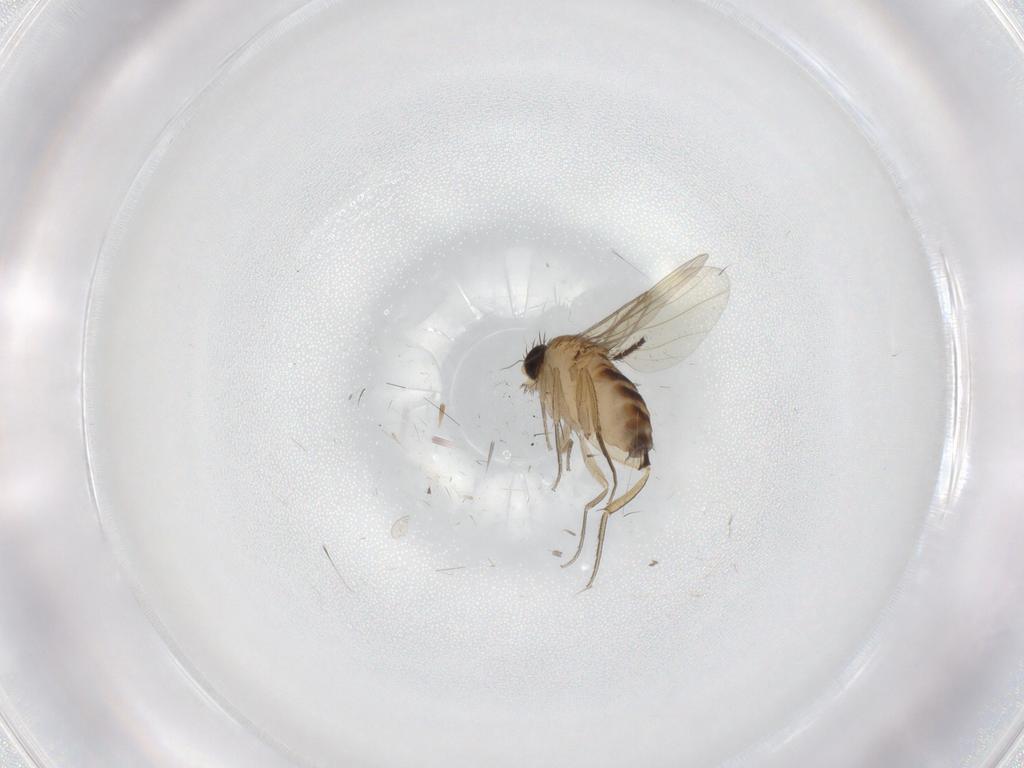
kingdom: Animalia
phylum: Arthropoda
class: Insecta
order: Diptera
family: Phoridae
